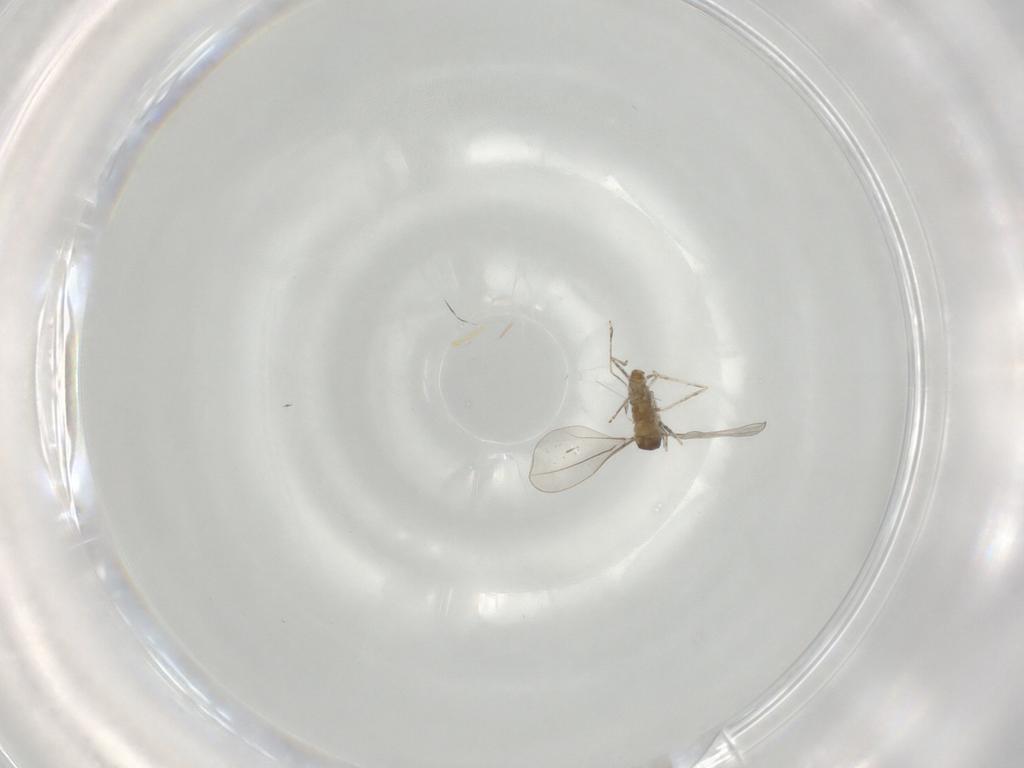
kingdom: Animalia
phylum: Arthropoda
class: Insecta
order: Diptera
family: Cecidomyiidae
